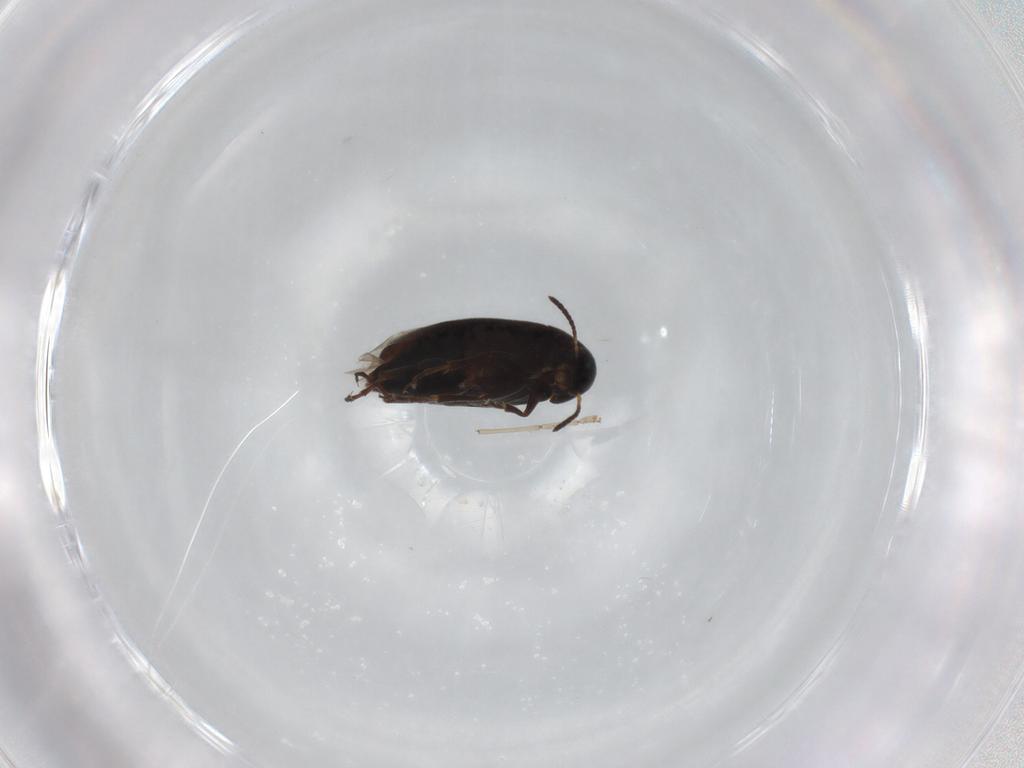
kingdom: Animalia
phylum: Arthropoda
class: Insecta
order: Coleoptera
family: Scraptiidae
